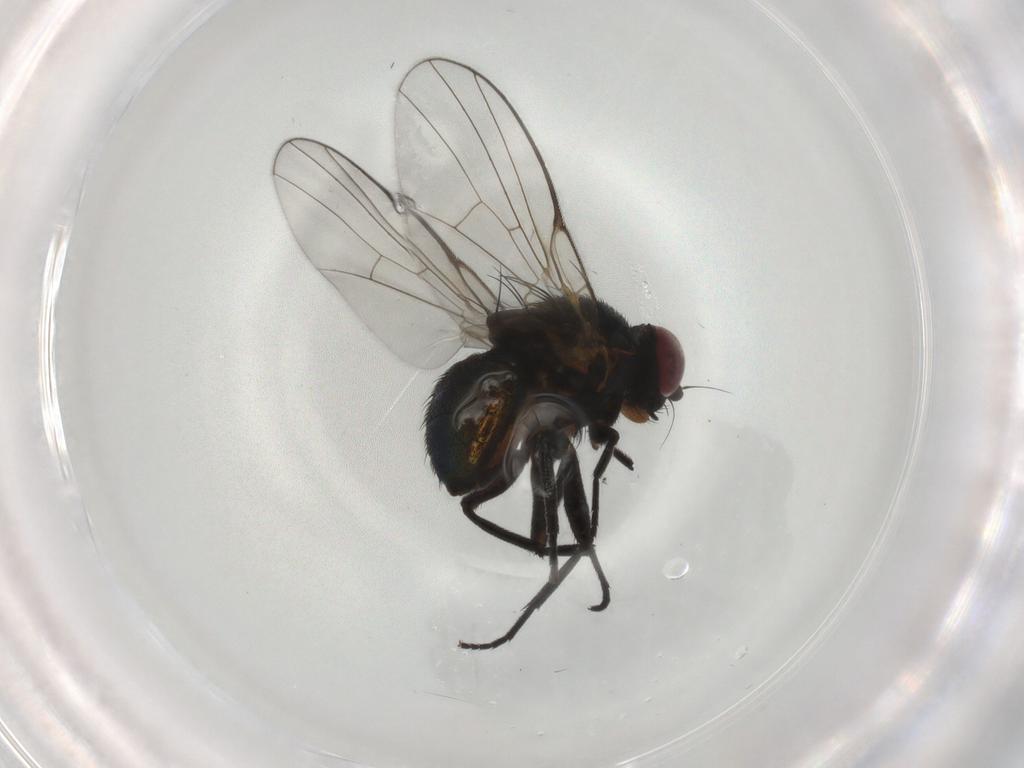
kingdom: Animalia
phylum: Arthropoda
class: Insecta
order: Diptera
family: Agromyzidae
